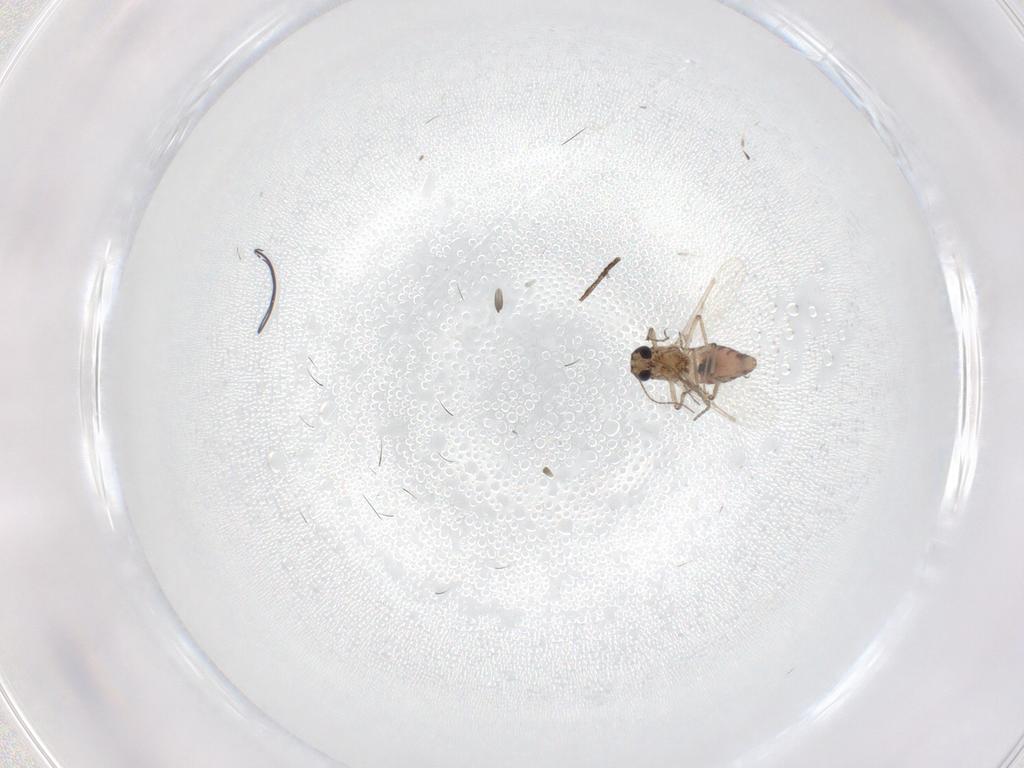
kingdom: Animalia
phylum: Arthropoda
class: Insecta
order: Diptera
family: Ceratopogonidae
